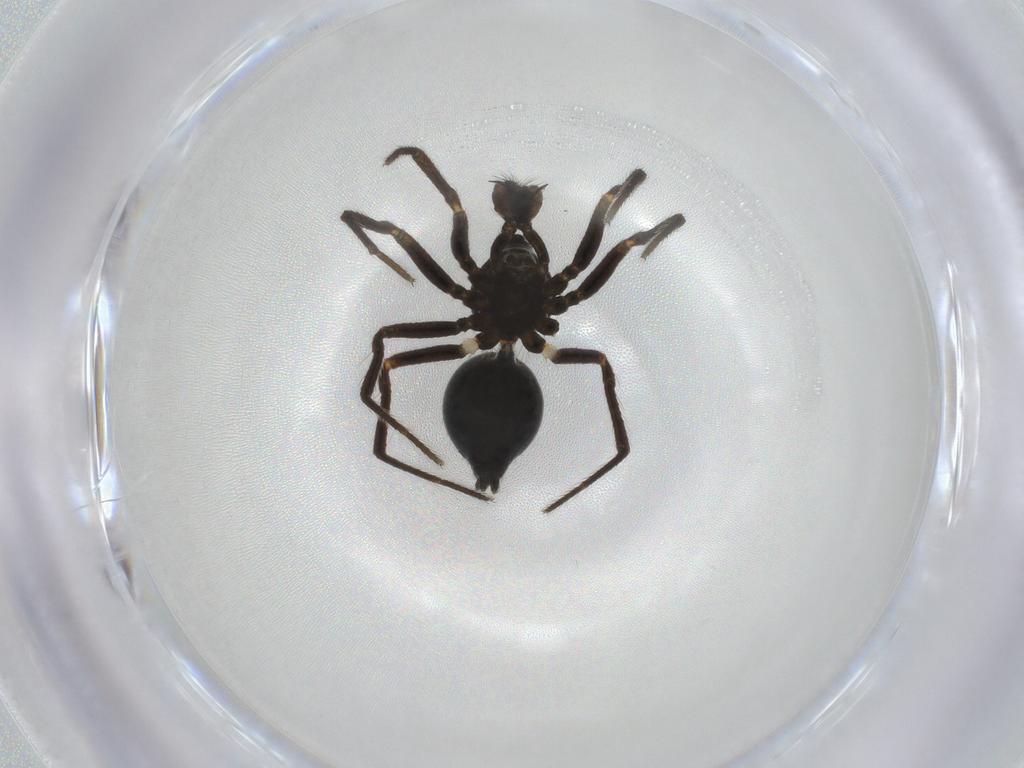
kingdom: Animalia
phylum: Arthropoda
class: Arachnida
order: Araneae
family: Theridiidae
